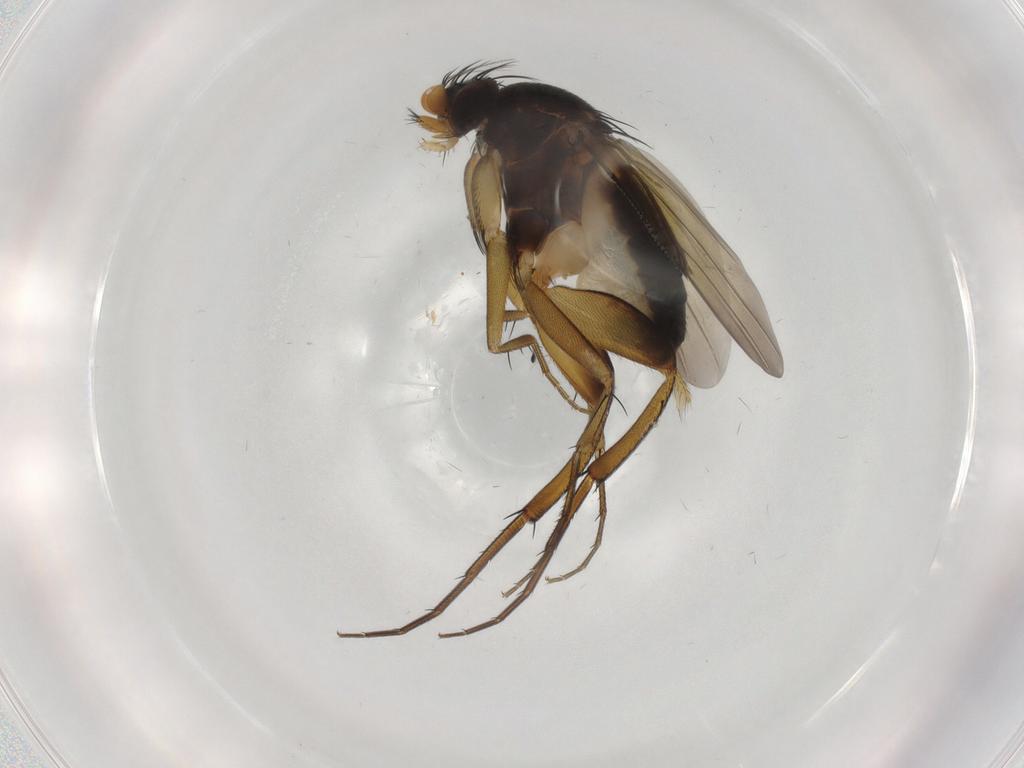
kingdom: Animalia
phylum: Arthropoda
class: Insecta
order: Diptera
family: Phoridae
